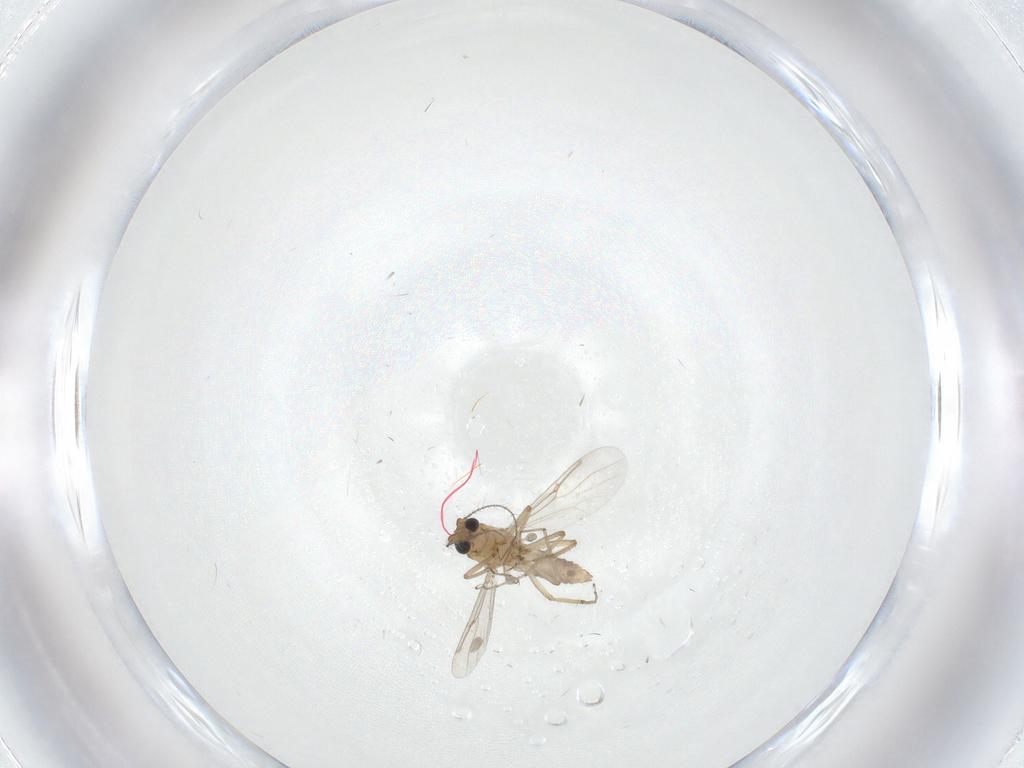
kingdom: Animalia
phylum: Arthropoda
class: Insecta
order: Diptera
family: Ceratopogonidae
